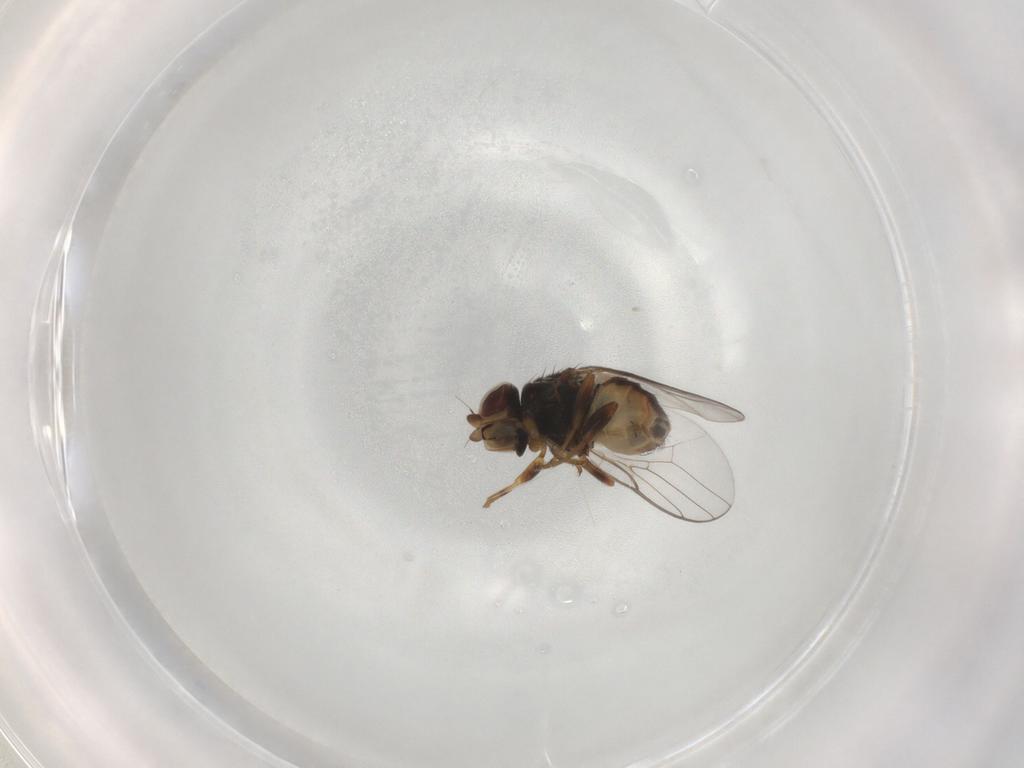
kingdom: Animalia
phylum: Arthropoda
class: Insecta
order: Diptera
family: Chloropidae
